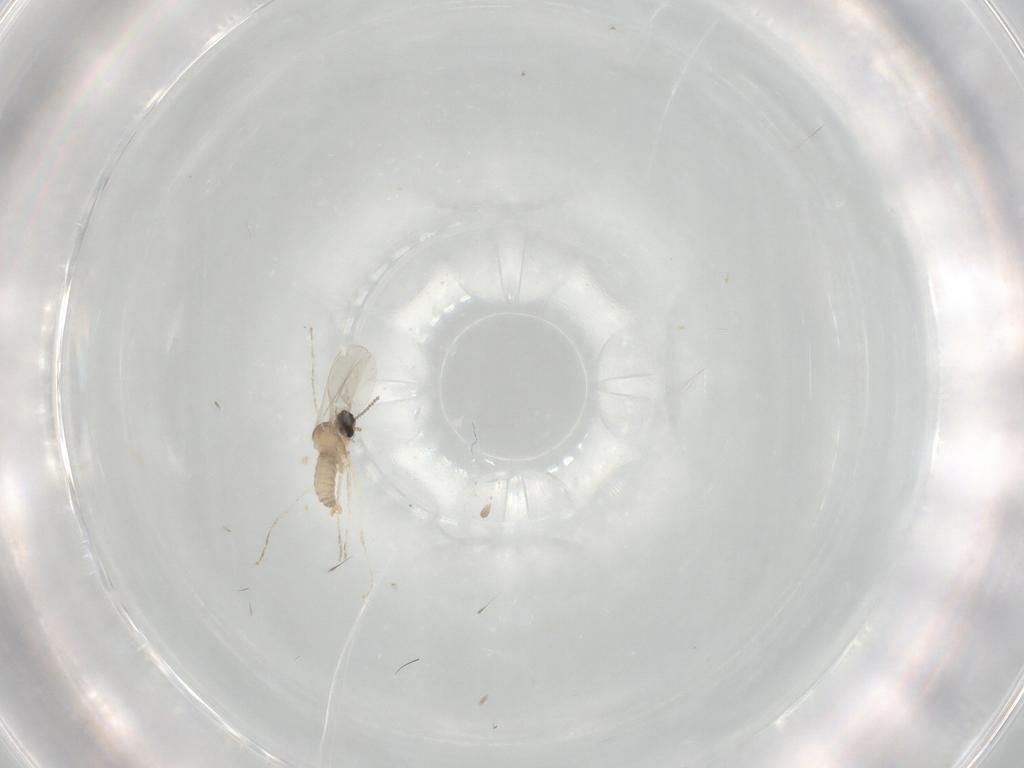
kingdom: Animalia
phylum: Arthropoda
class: Insecta
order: Diptera
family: Cecidomyiidae
